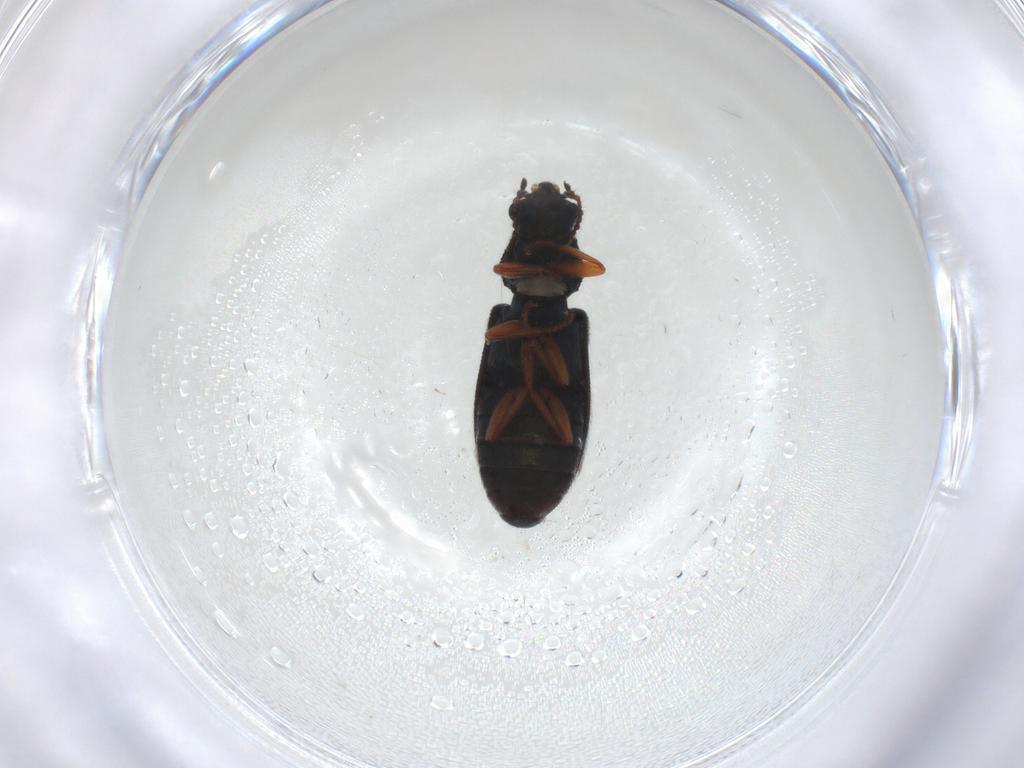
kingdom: Animalia
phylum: Arthropoda
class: Insecta
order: Coleoptera
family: Melyridae
